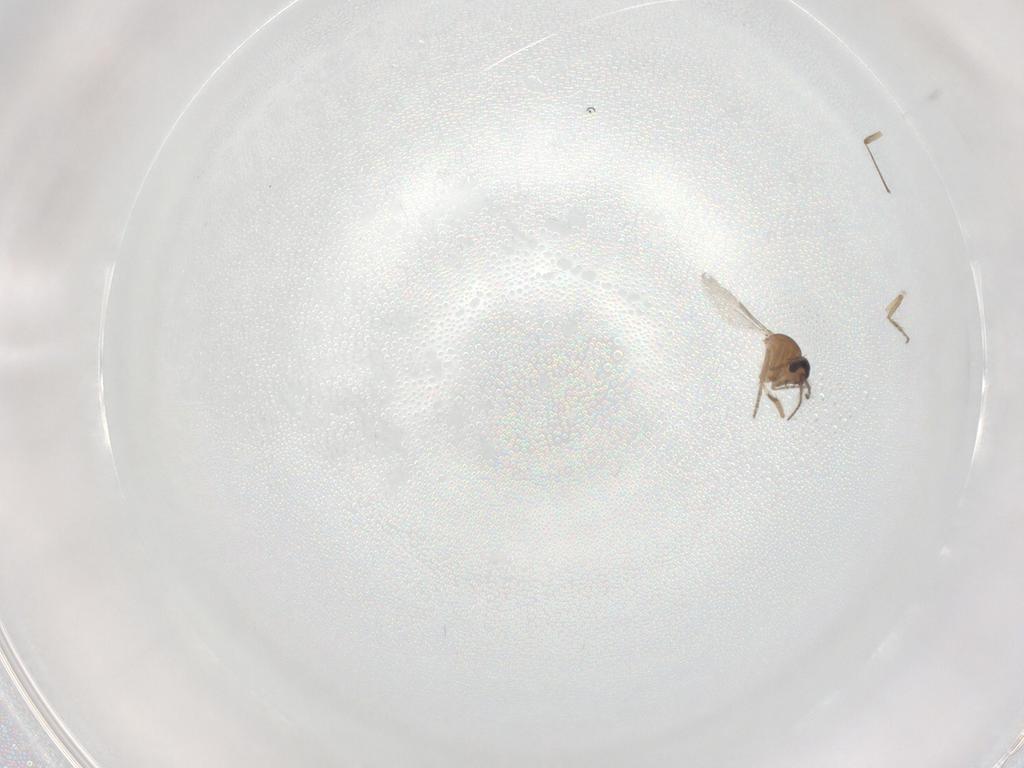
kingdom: Animalia
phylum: Arthropoda
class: Insecta
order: Diptera
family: Ceratopogonidae
